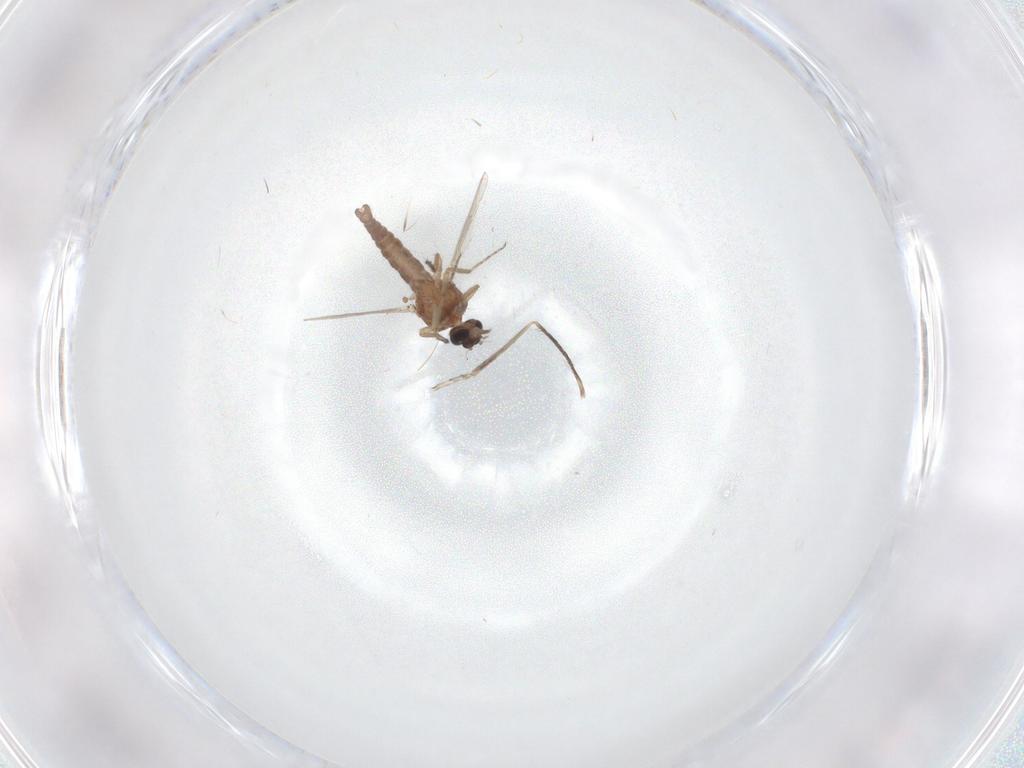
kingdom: Animalia
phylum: Arthropoda
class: Insecta
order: Diptera
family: Ceratopogonidae
